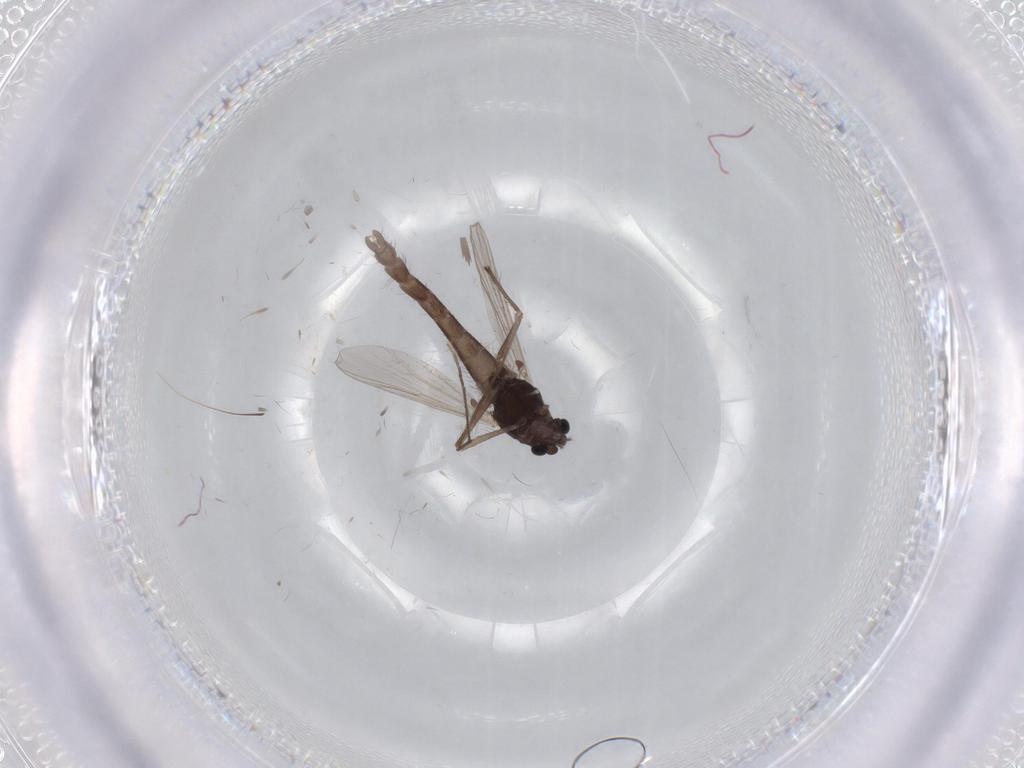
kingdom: Animalia
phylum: Arthropoda
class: Insecta
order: Diptera
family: Chironomidae
